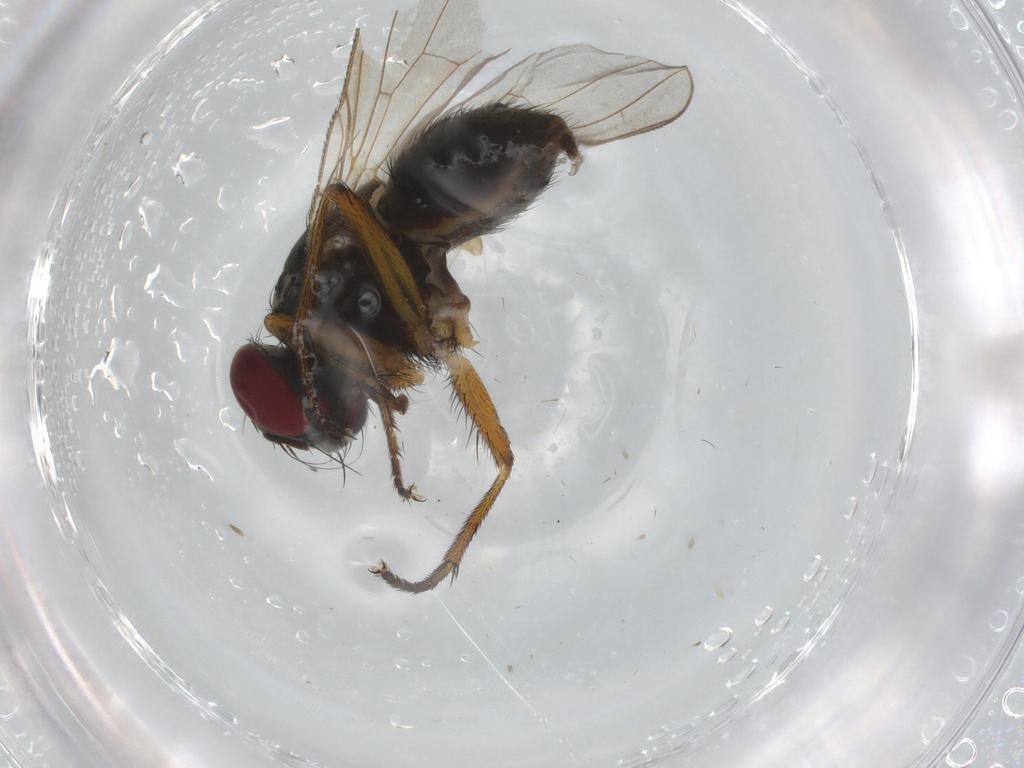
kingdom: Animalia
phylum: Arthropoda
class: Insecta
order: Diptera
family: Muscidae
